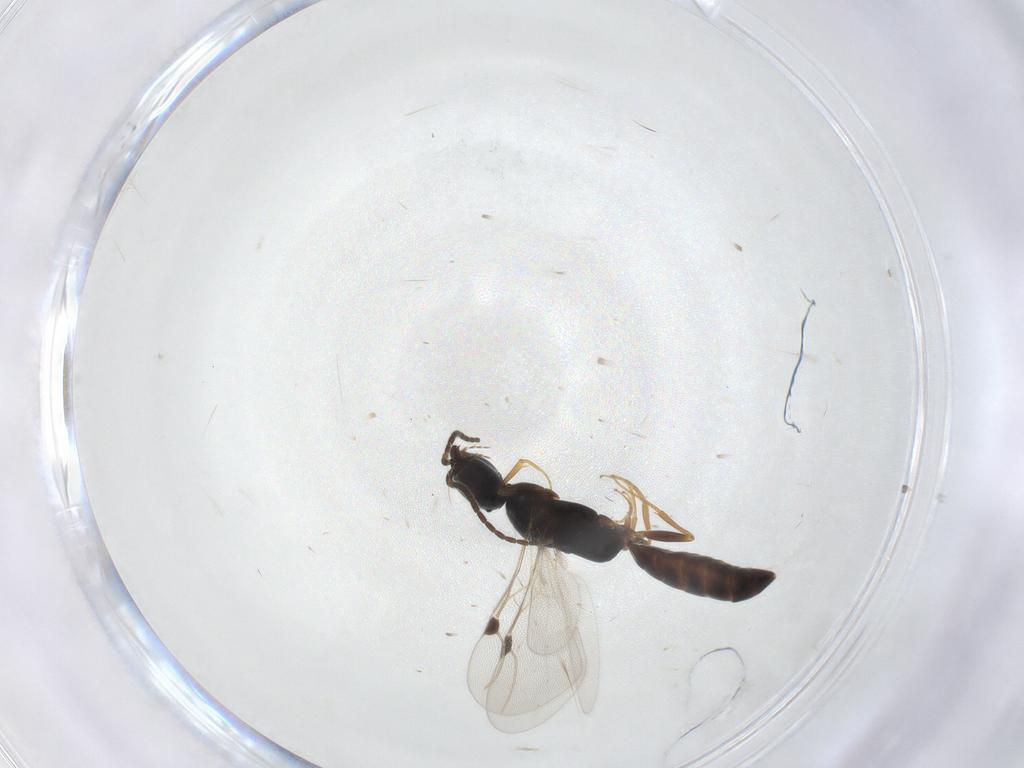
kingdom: Animalia
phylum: Arthropoda
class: Insecta
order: Hymenoptera
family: Bethylidae
